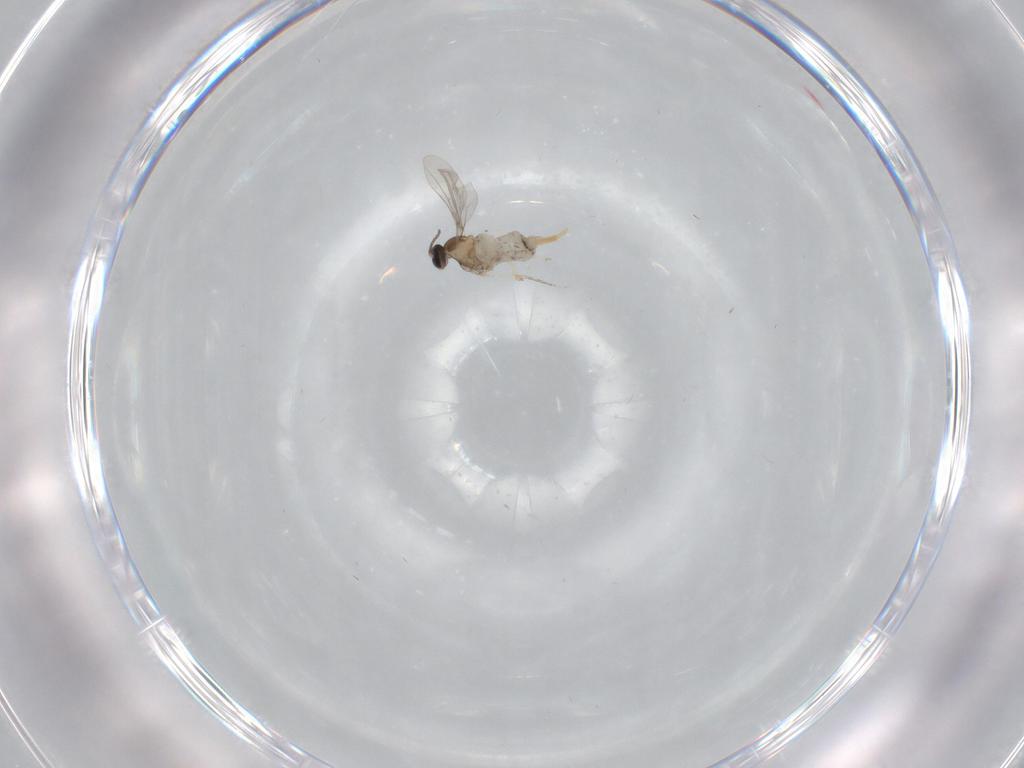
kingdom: Animalia
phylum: Arthropoda
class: Insecta
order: Diptera
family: Dolichopodidae
